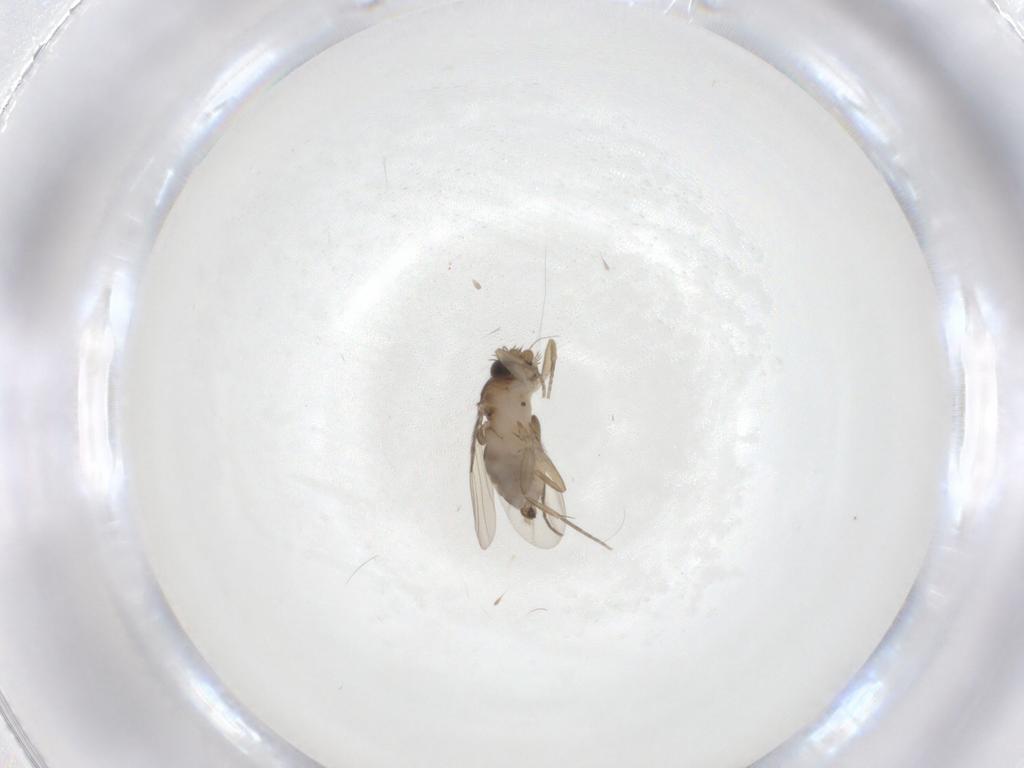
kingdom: Animalia
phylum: Arthropoda
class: Insecta
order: Diptera
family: Phoridae
